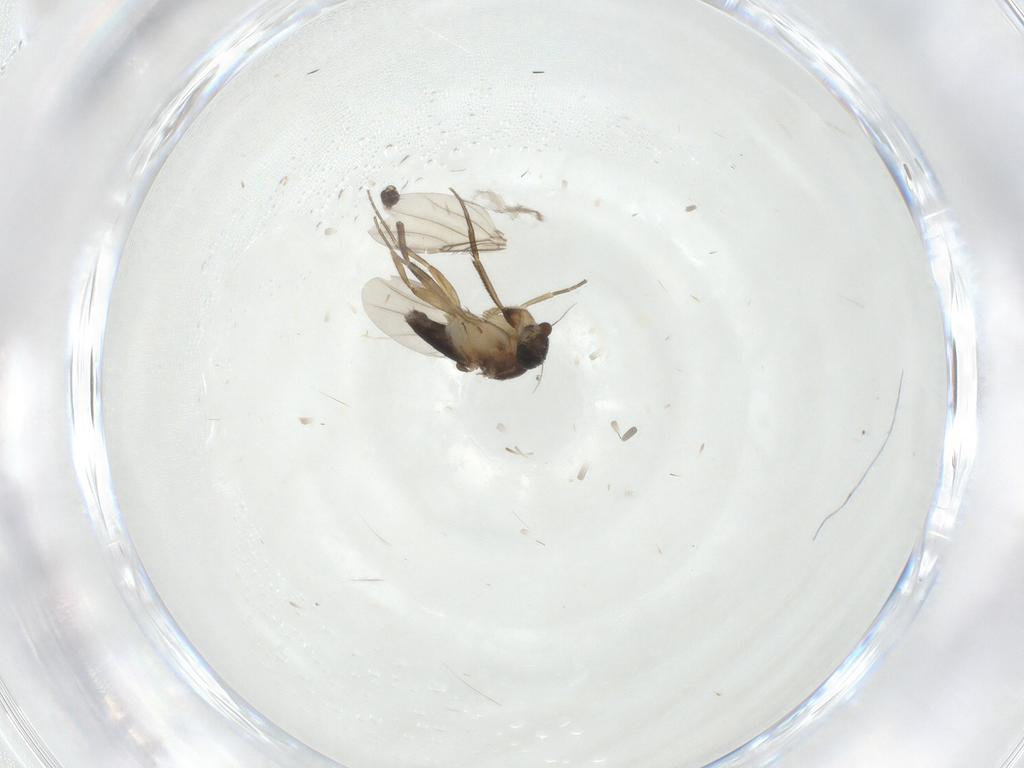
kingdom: Animalia
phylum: Arthropoda
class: Insecta
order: Diptera
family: Phoridae
